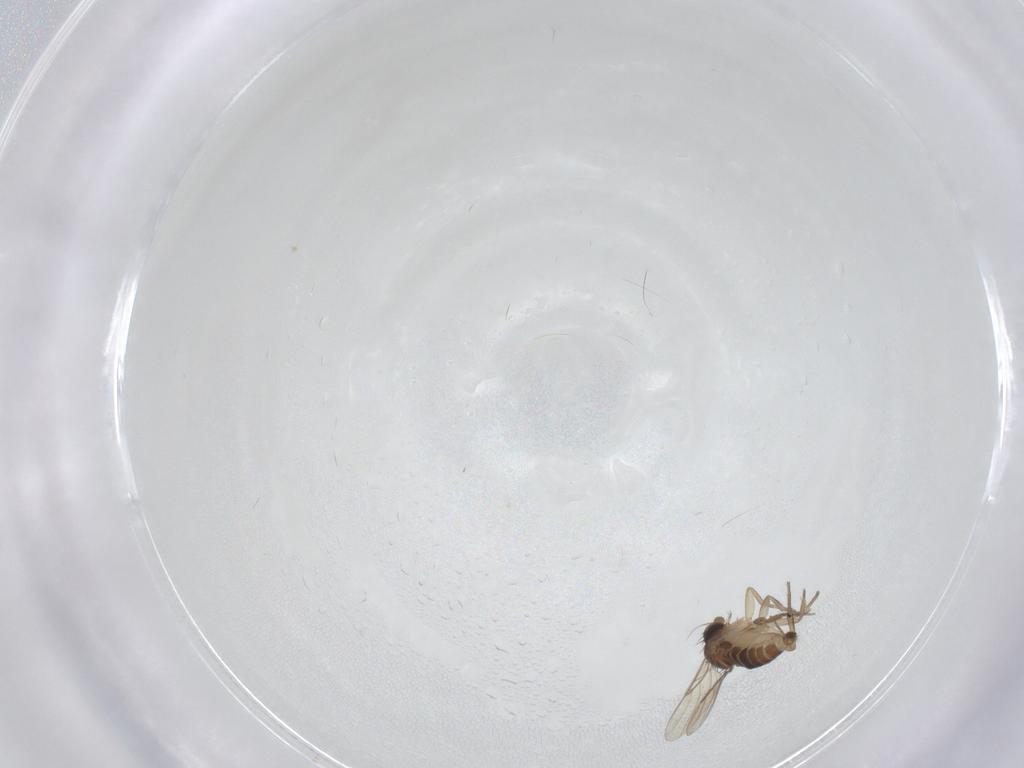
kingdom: Animalia
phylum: Arthropoda
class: Insecta
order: Diptera
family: Phoridae
